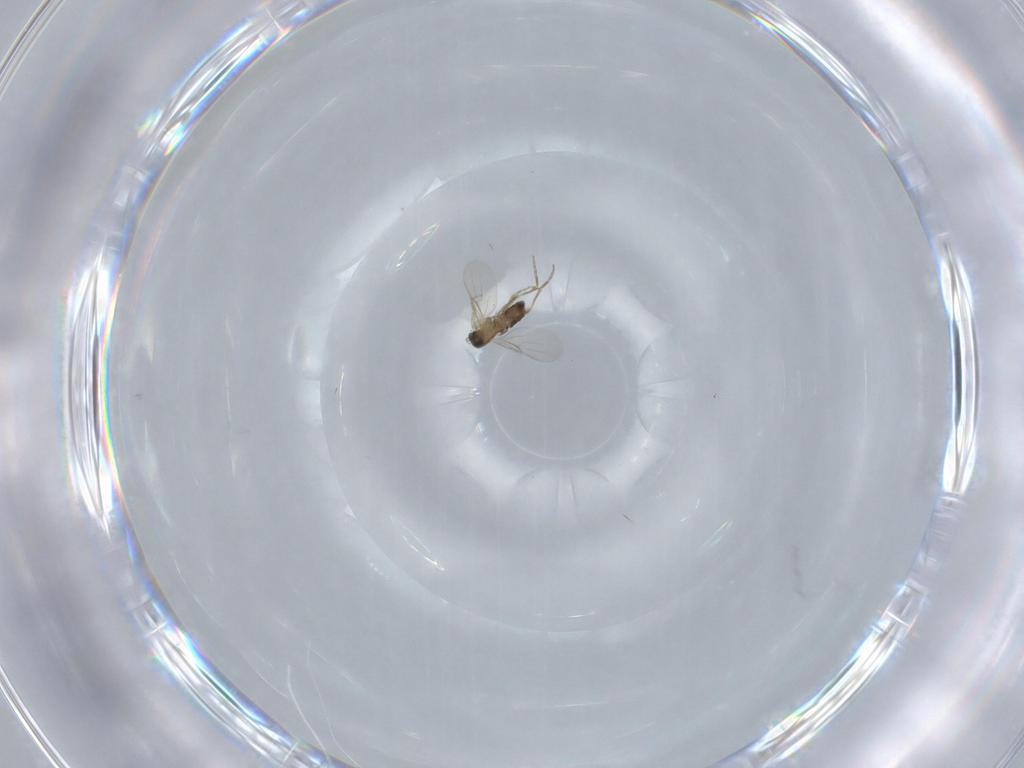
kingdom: Animalia
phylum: Arthropoda
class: Insecta
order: Diptera
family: Phoridae
